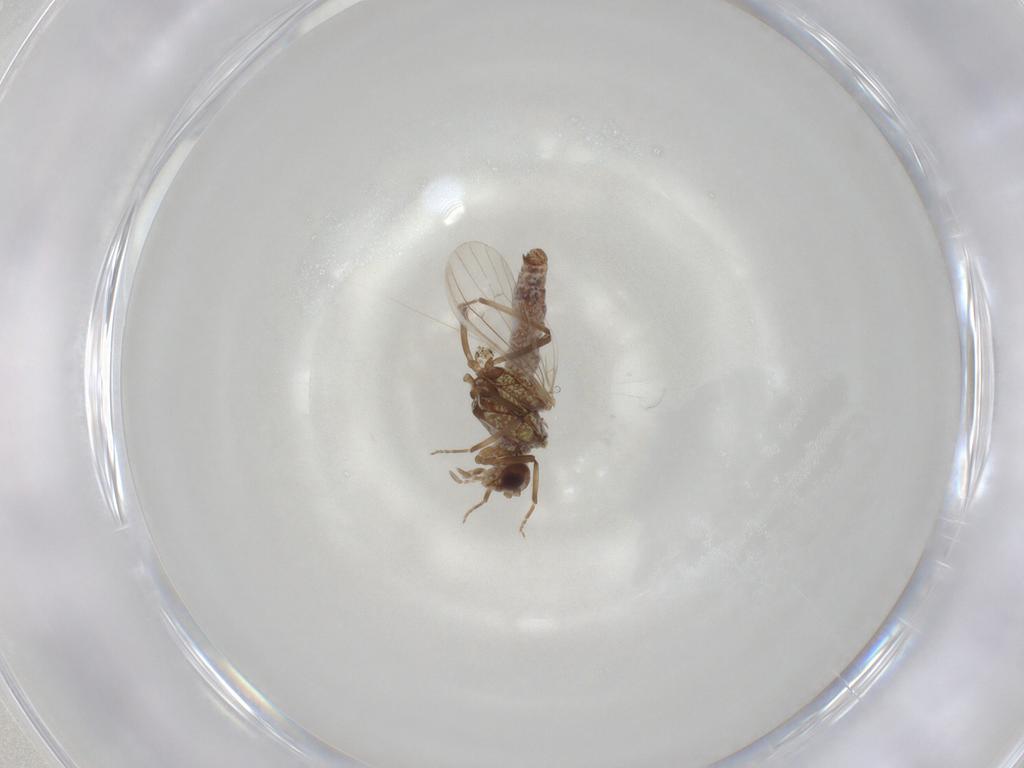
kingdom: Animalia
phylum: Arthropoda
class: Insecta
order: Neuroptera
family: Coniopterygidae
